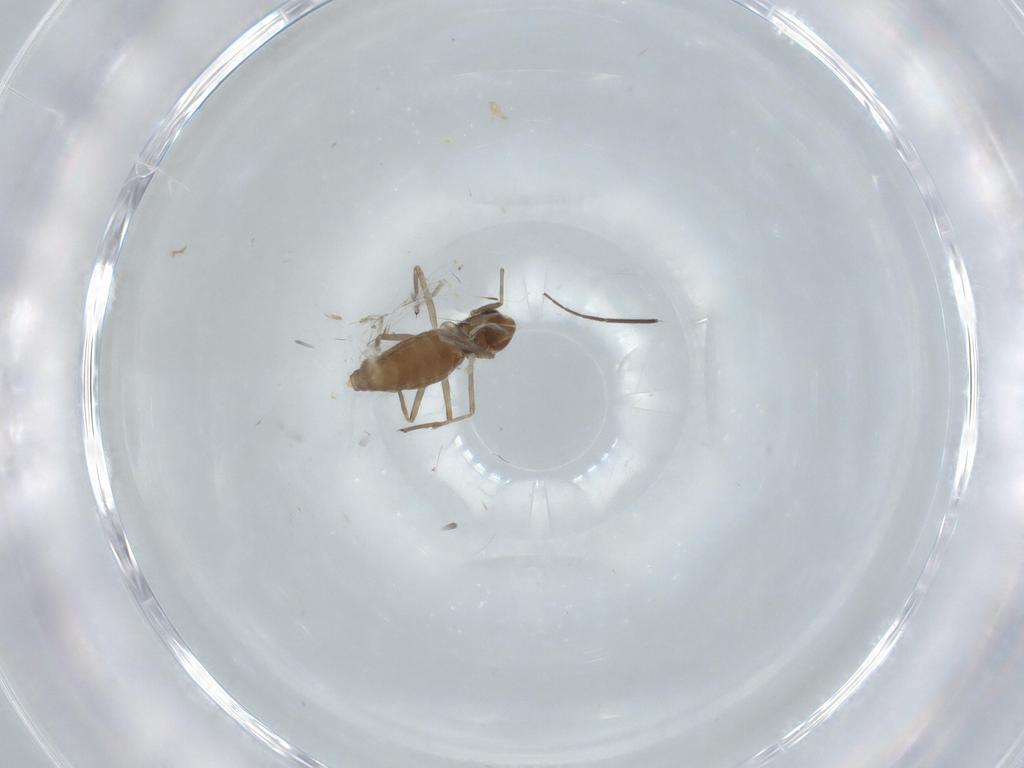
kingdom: Animalia
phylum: Arthropoda
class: Insecta
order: Diptera
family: Chironomidae
